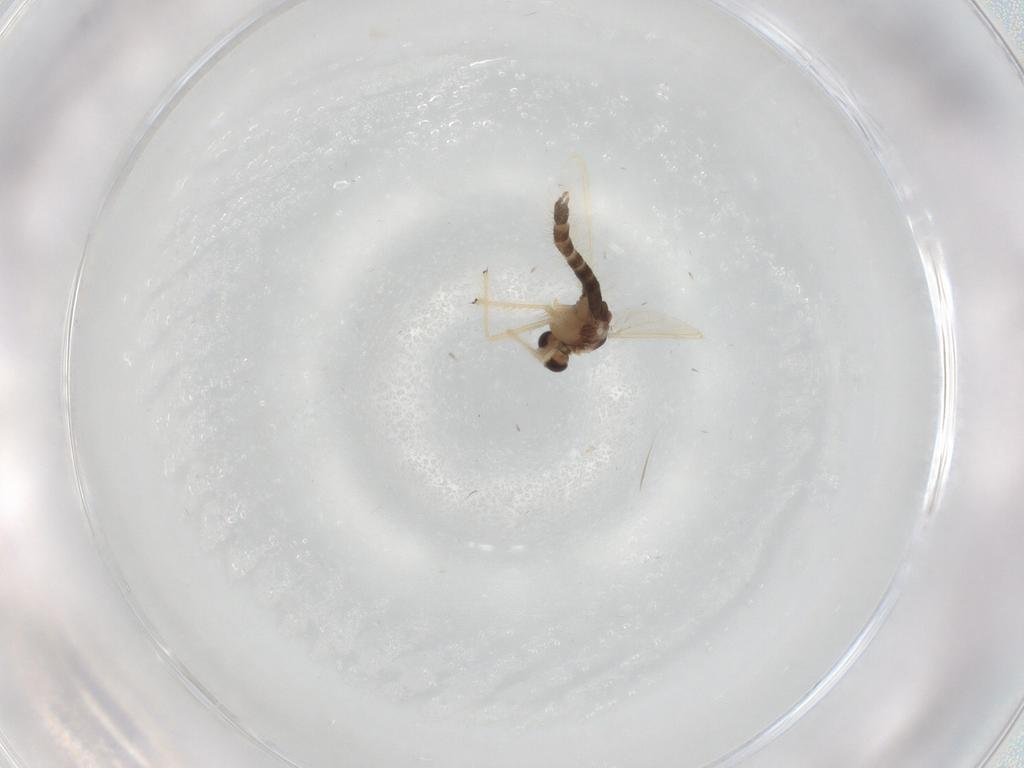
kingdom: Animalia
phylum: Arthropoda
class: Insecta
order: Diptera
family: Chironomidae
